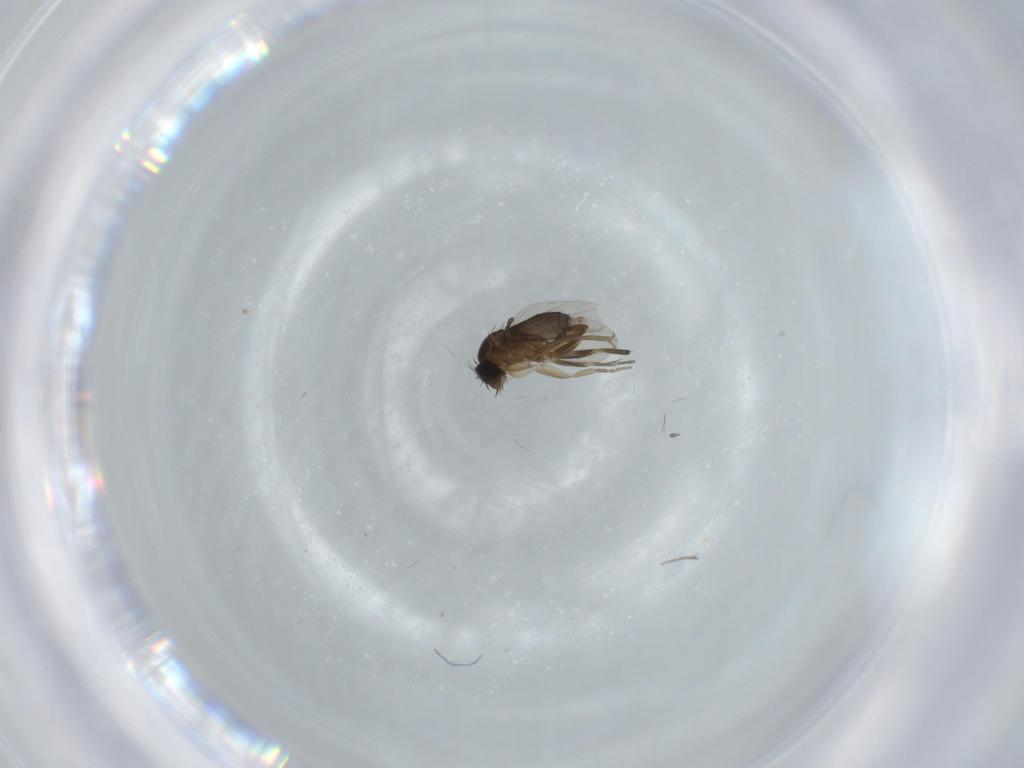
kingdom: Animalia
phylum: Arthropoda
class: Insecta
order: Diptera
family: Phoridae
